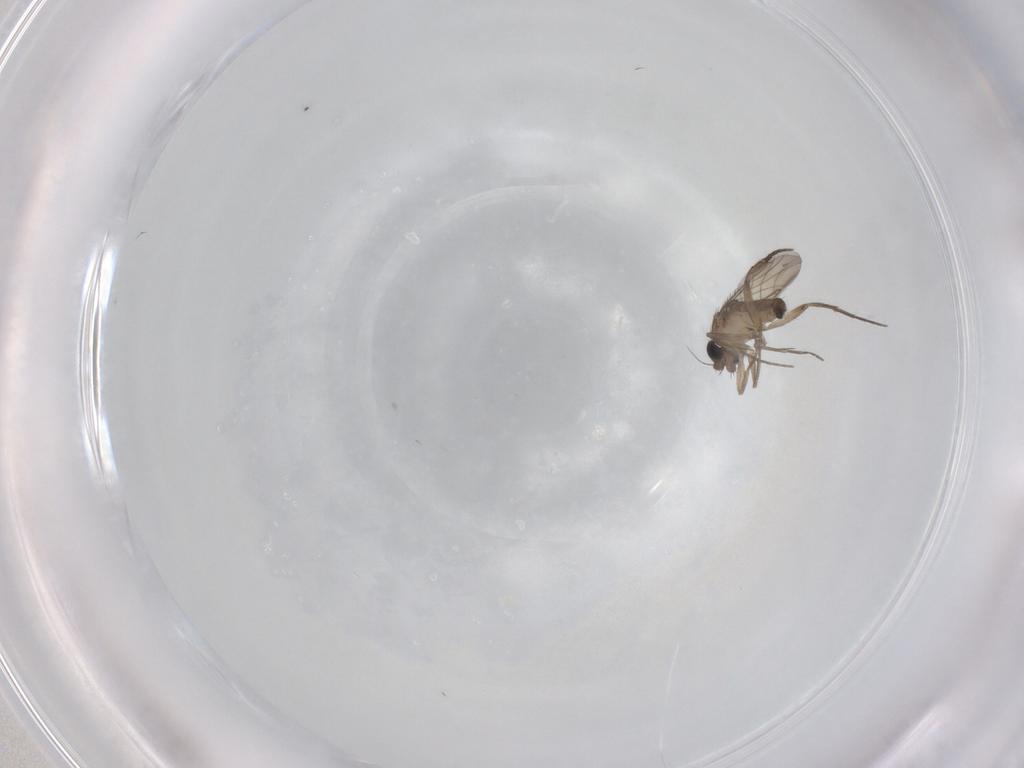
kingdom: Animalia
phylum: Arthropoda
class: Insecta
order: Diptera
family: Phoridae
